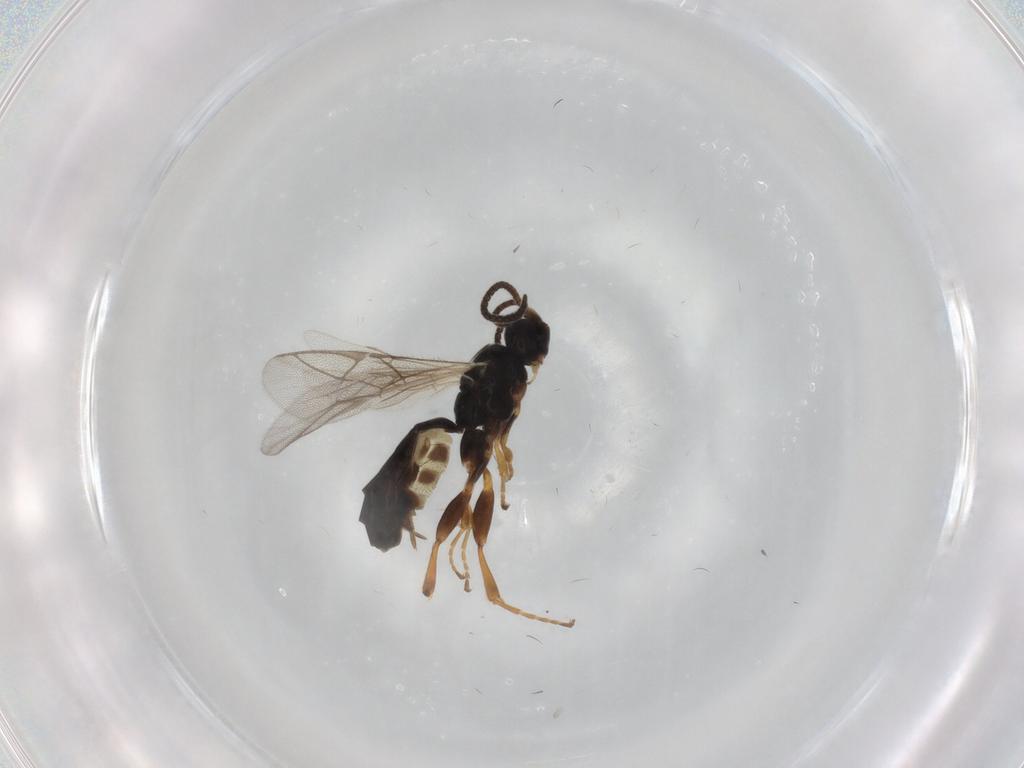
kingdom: Animalia
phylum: Arthropoda
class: Insecta
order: Hymenoptera
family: Ichneumonidae
